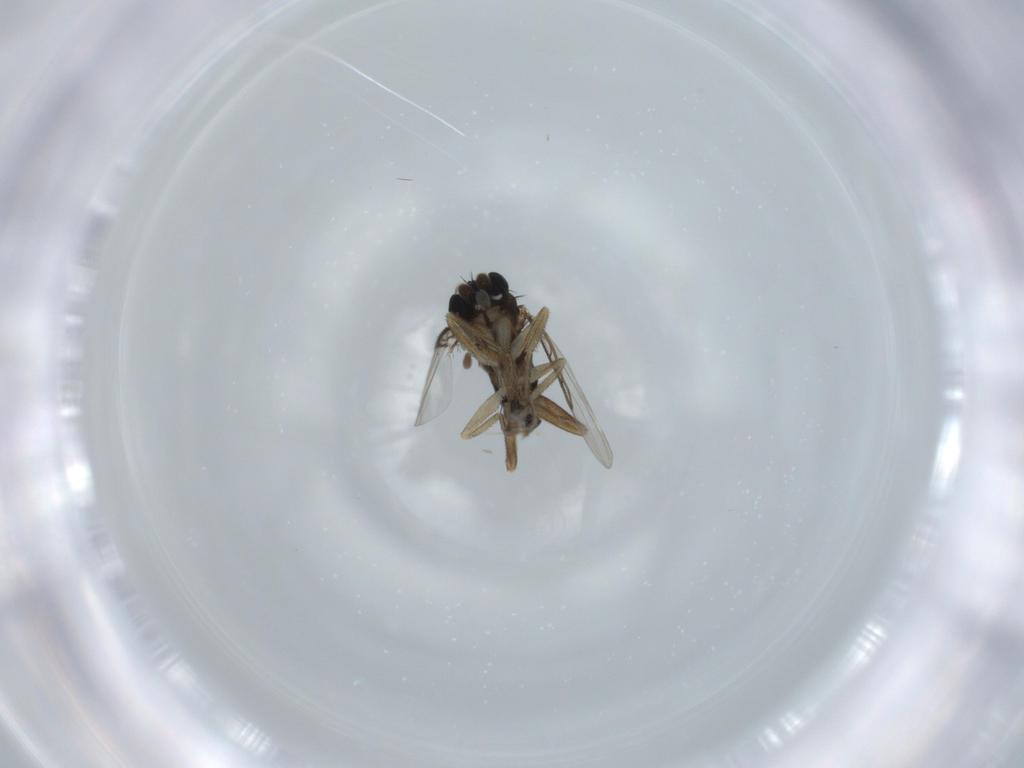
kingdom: Animalia
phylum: Arthropoda
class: Insecta
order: Diptera
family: Phoridae
